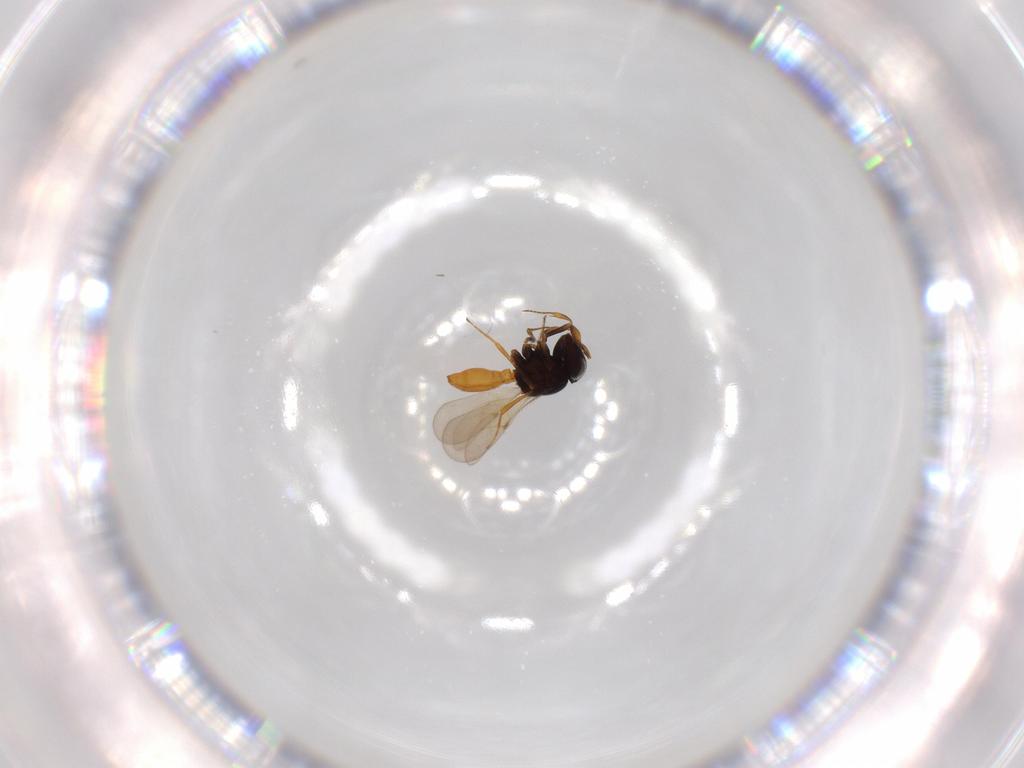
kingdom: Animalia
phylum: Arthropoda
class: Insecta
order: Hymenoptera
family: Scelionidae
